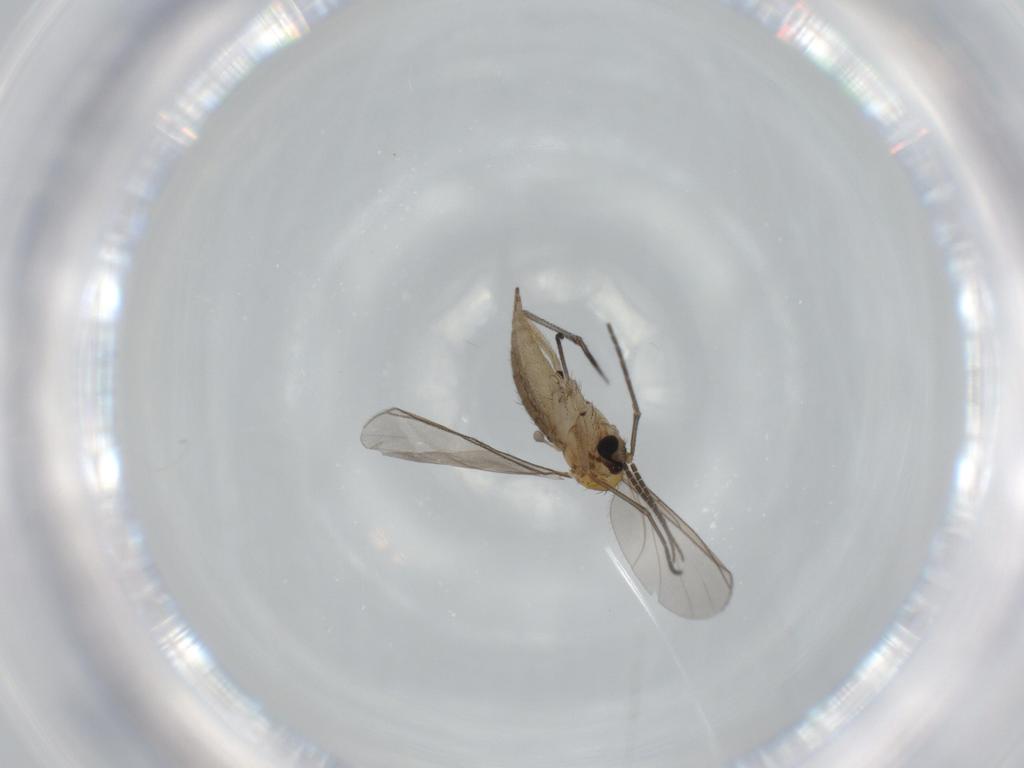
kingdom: Animalia
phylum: Arthropoda
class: Insecta
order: Diptera
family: Sciaridae
